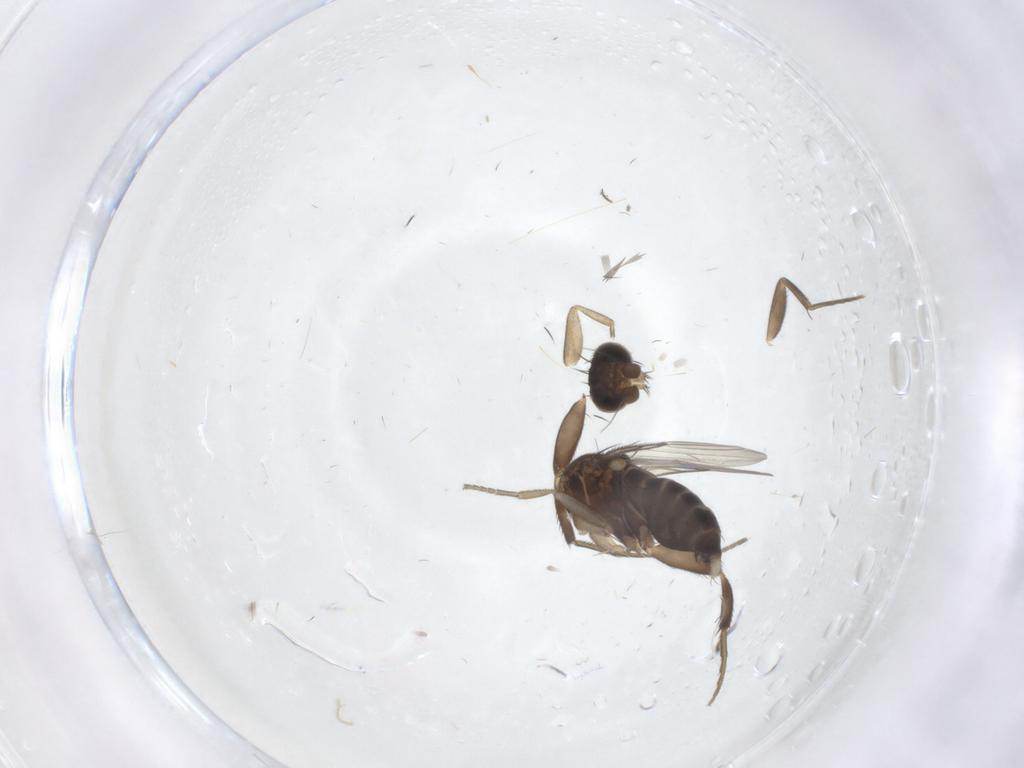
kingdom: Animalia
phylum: Arthropoda
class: Insecta
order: Diptera
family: Phoridae
